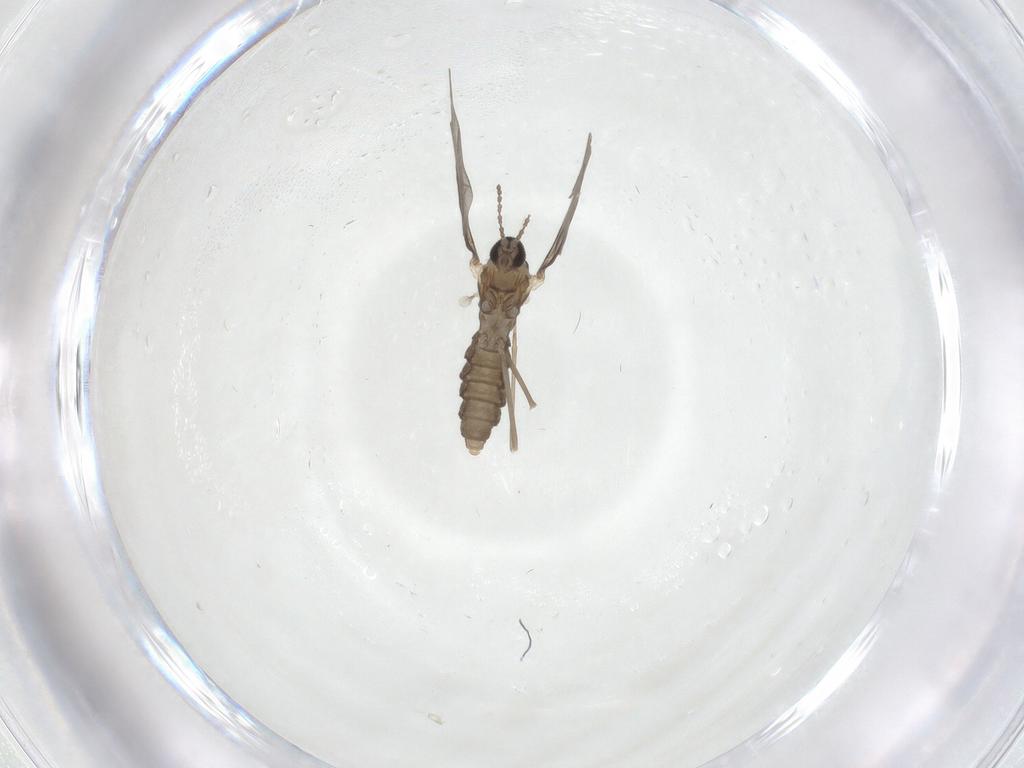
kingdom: Animalia
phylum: Arthropoda
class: Insecta
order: Diptera
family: Cecidomyiidae
